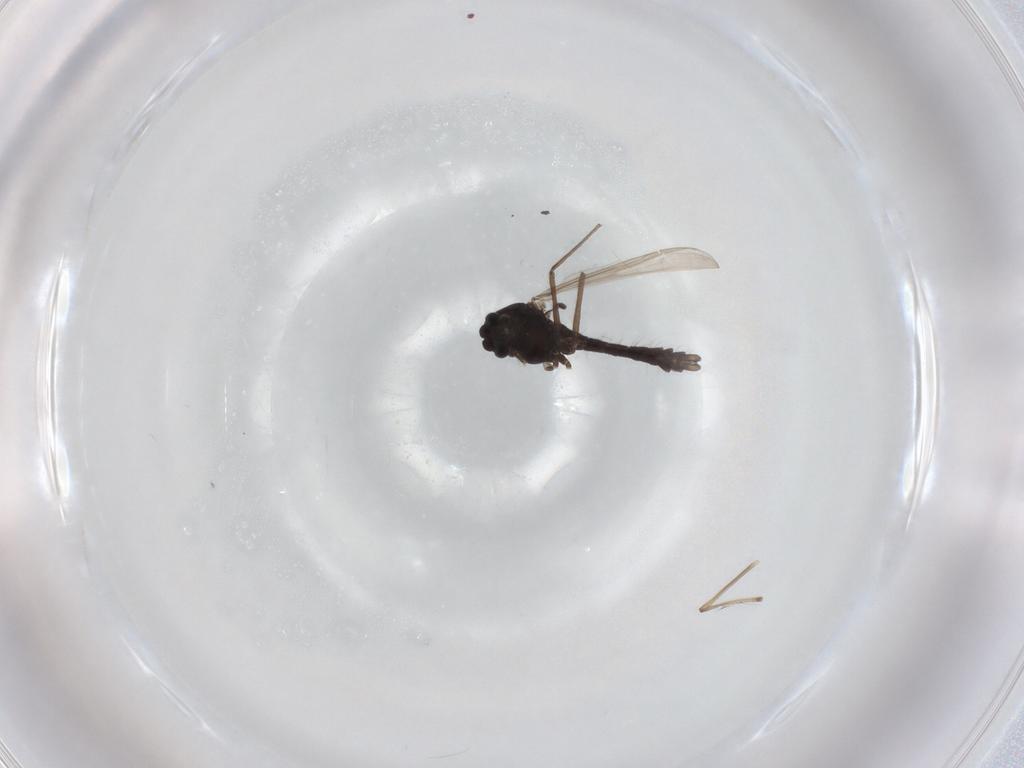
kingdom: Animalia
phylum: Arthropoda
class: Insecta
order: Diptera
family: Chironomidae
